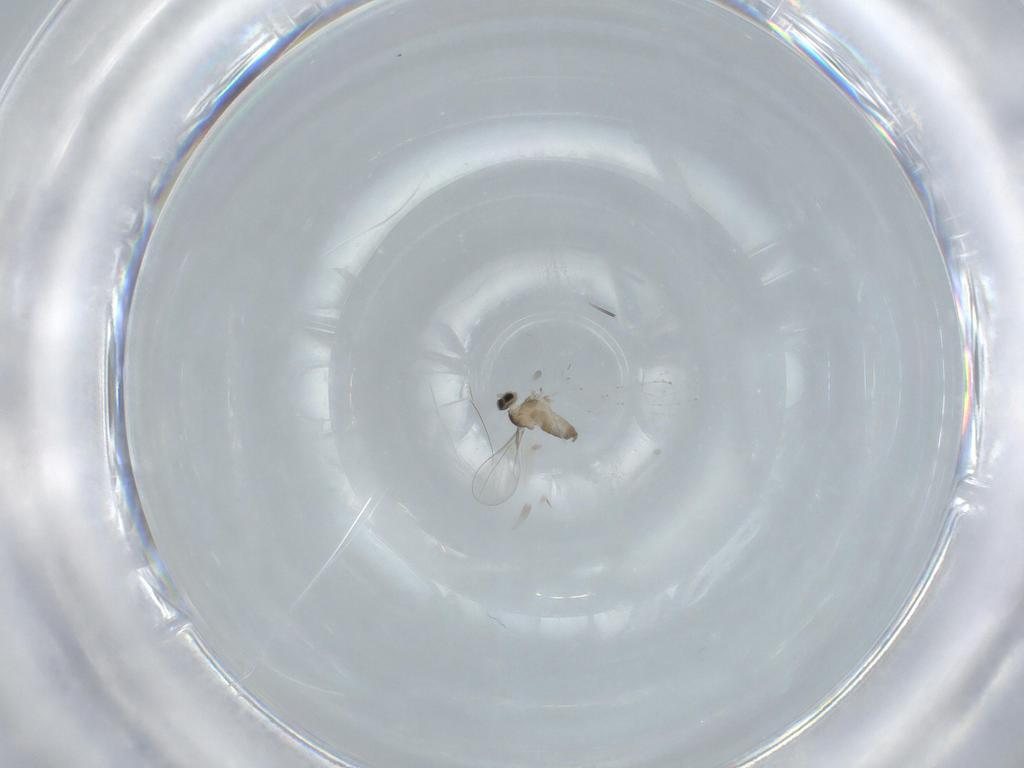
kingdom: Animalia
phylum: Arthropoda
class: Insecta
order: Diptera
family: Cecidomyiidae
